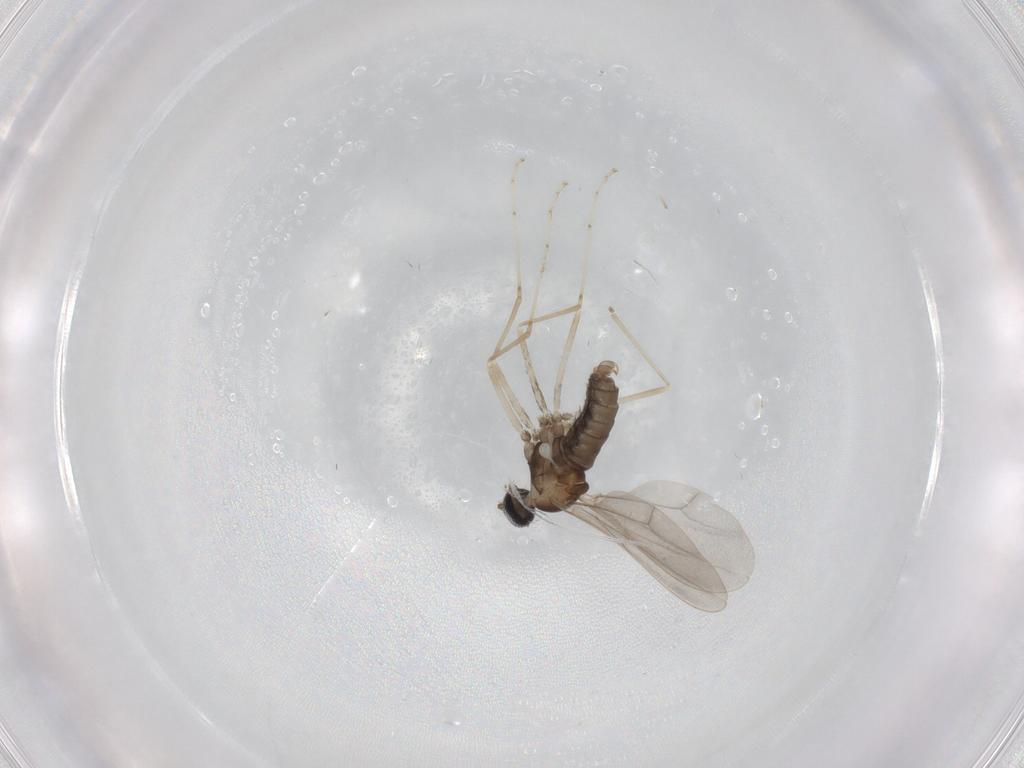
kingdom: Animalia
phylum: Arthropoda
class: Insecta
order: Diptera
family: Cecidomyiidae
